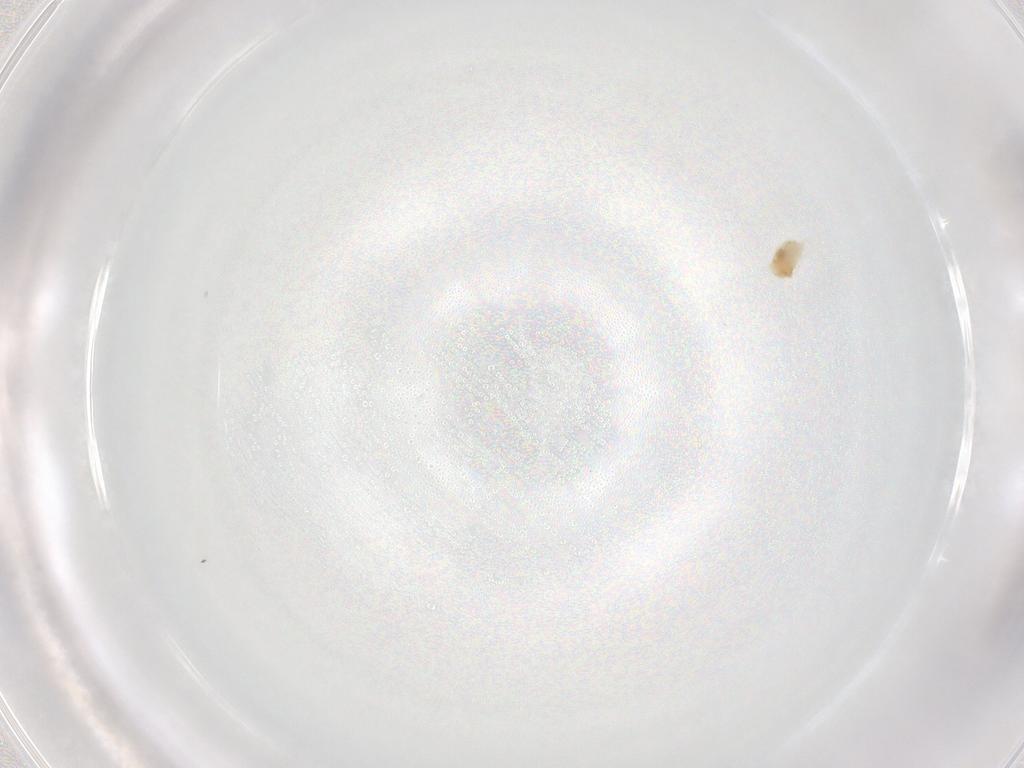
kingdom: Animalia
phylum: Arthropoda
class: Arachnida
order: Trombidiformes
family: Eupodidae
